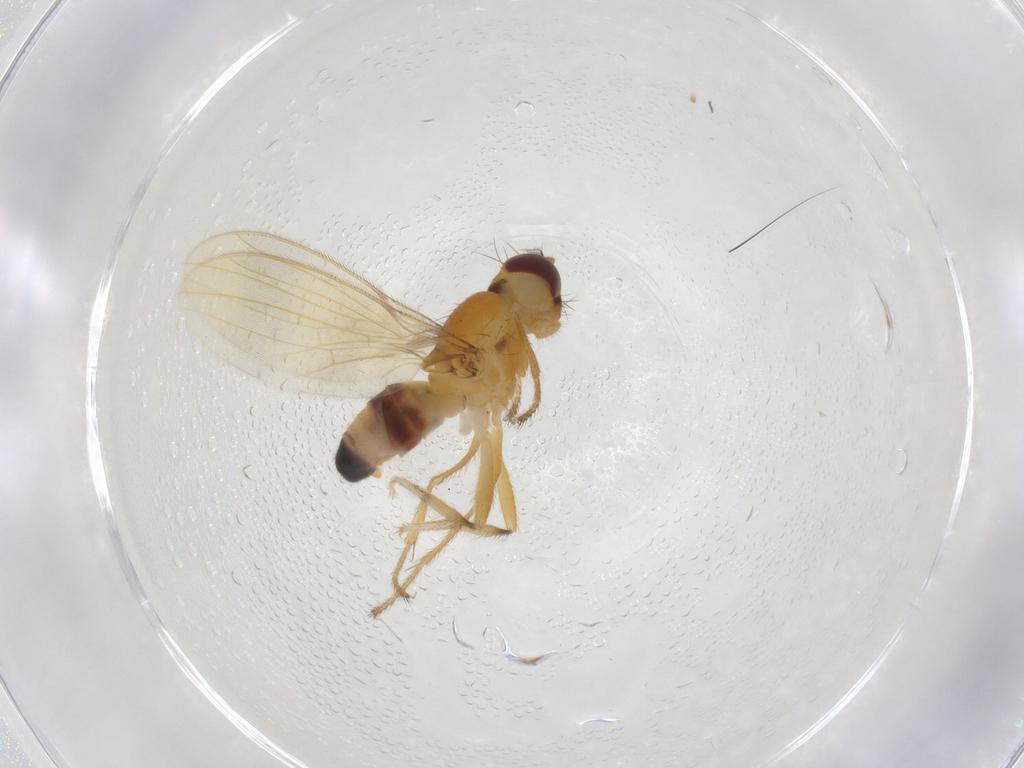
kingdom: Animalia
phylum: Arthropoda
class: Insecta
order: Diptera
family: Periscelididae
